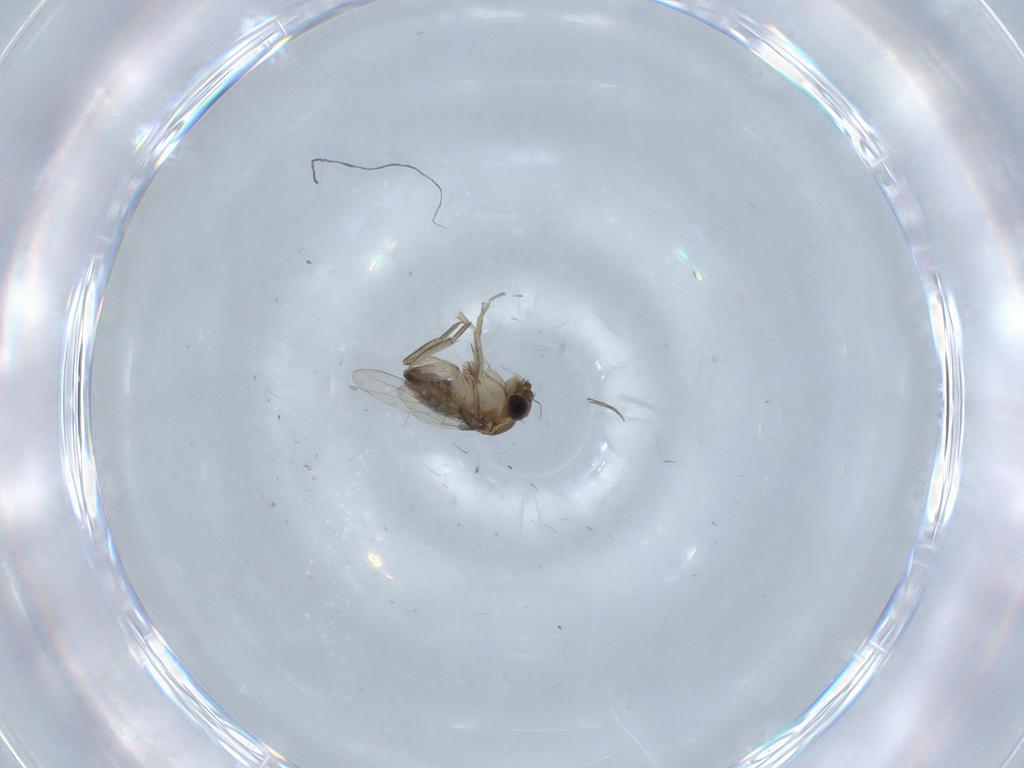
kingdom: Animalia
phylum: Arthropoda
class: Insecta
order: Diptera
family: Phoridae
